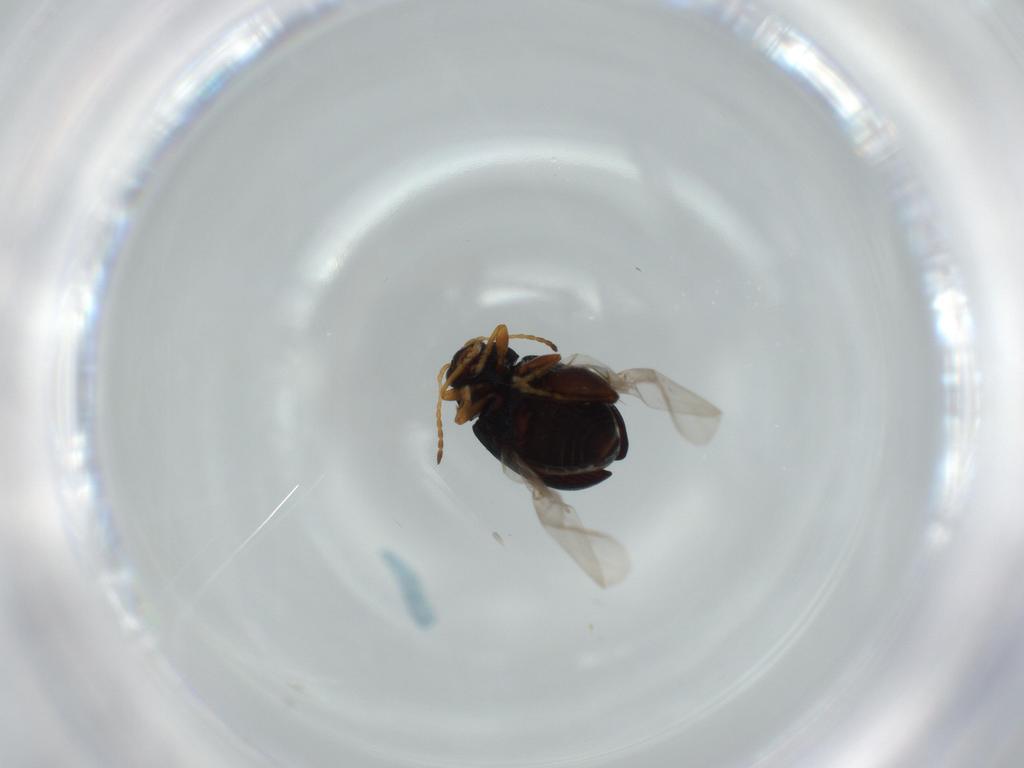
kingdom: Animalia
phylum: Arthropoda
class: Insecta
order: Coleoptera
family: Chrysomelidae
